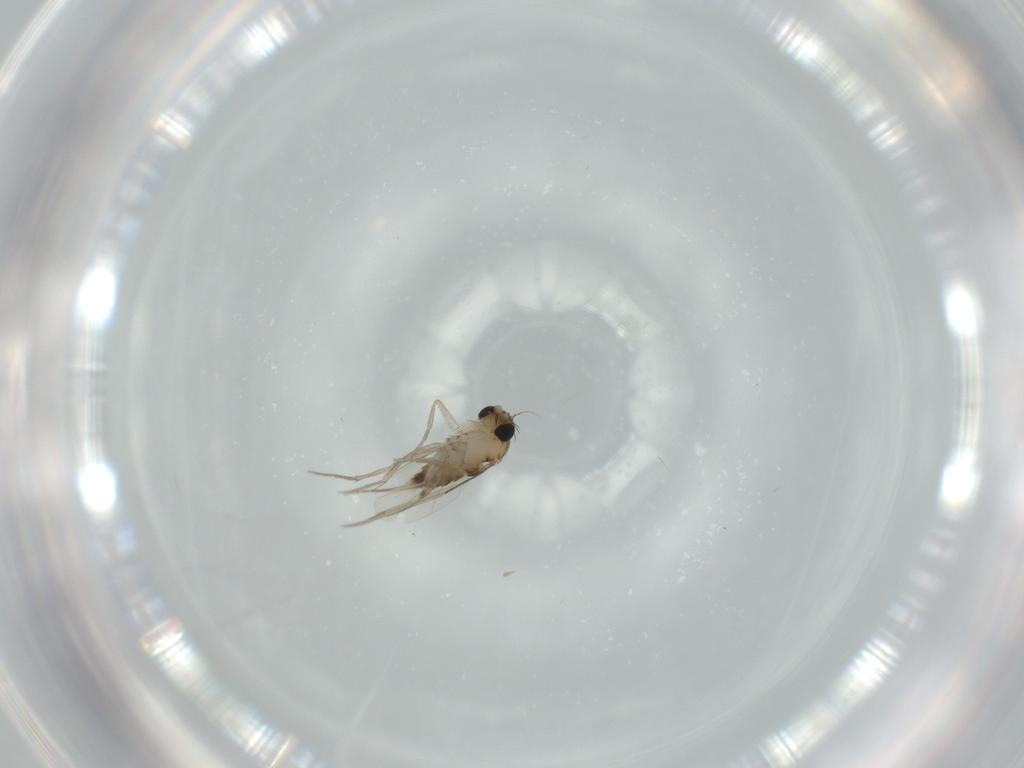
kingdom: Animalia
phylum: Arthropoda
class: Insecta
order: Diptera
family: Phoridae
